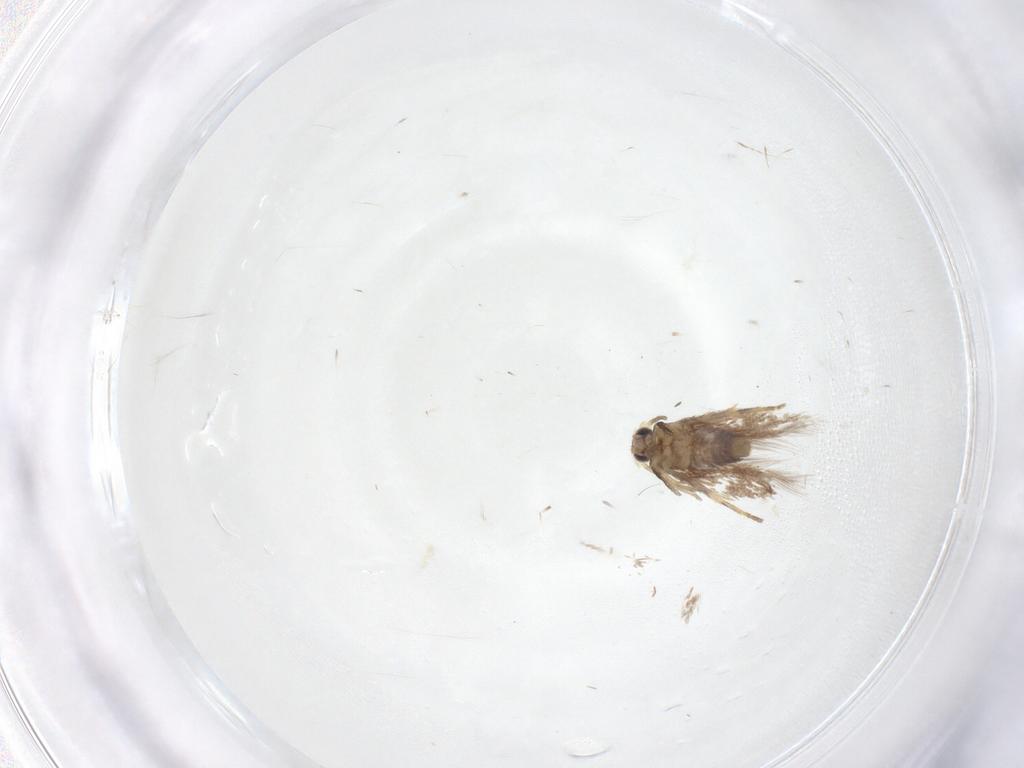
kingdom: Animalia
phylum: Arthropoda
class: Insecta
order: Lepidoptera
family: Nepticulidae
